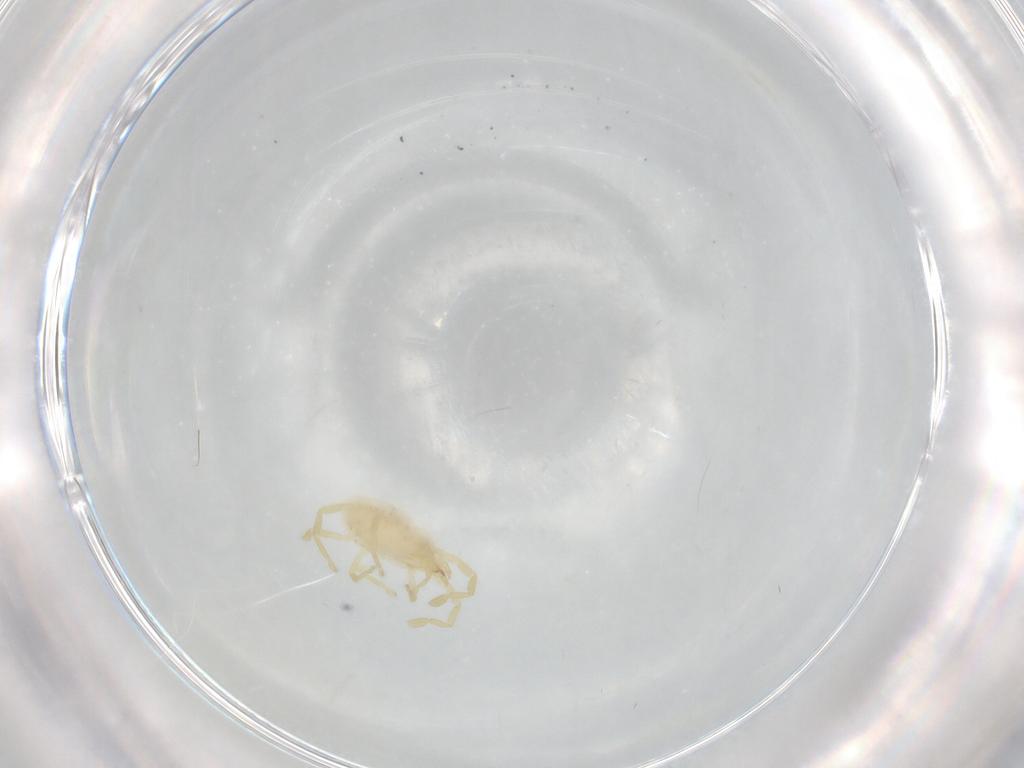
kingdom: Animalia
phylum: Arthropoda
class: Arachnida
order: Trombidiformes
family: Erythraeidae
